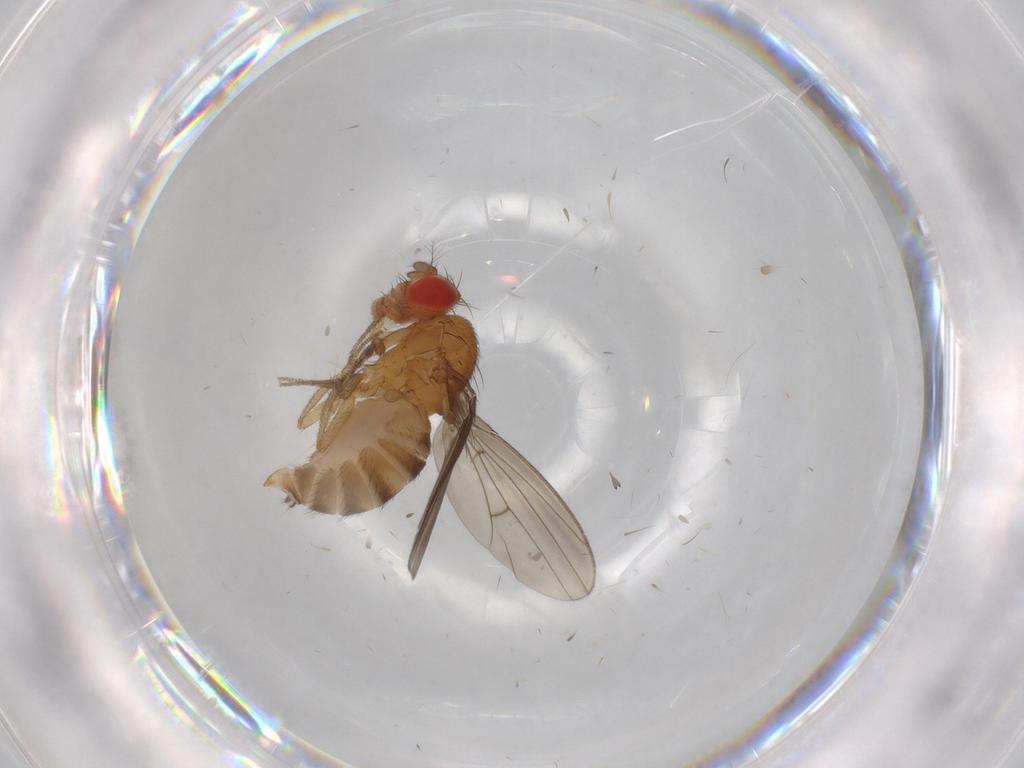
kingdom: Animalia
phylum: Arthropoda
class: Insecta
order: Diptera
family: Drosophilidae
